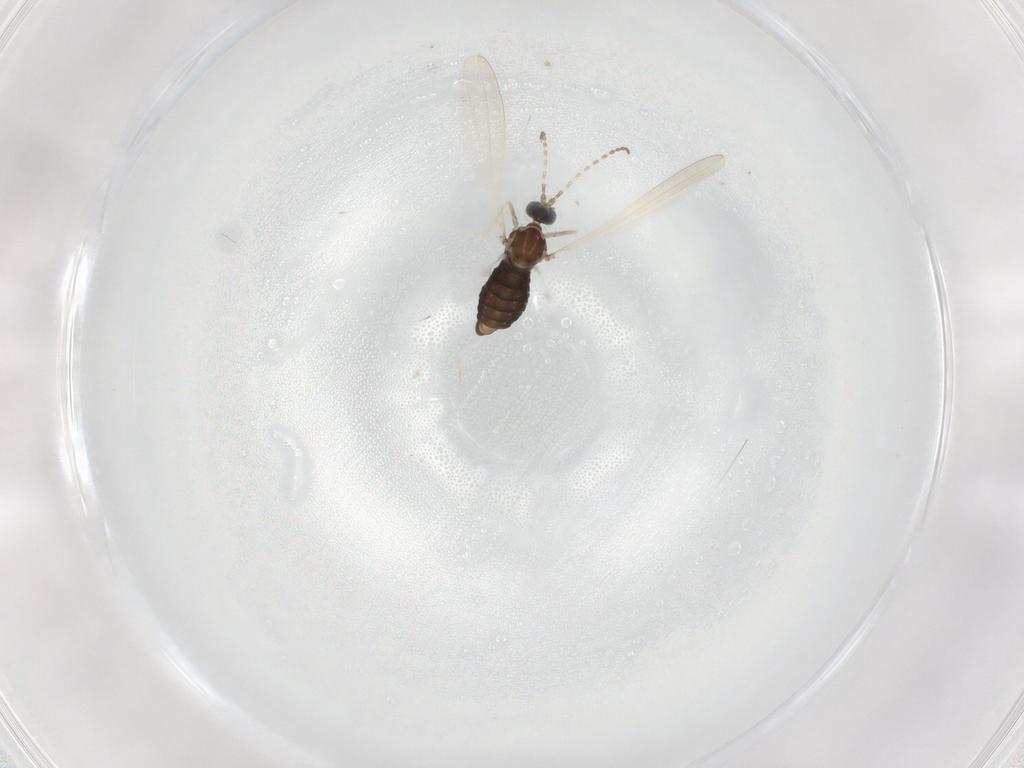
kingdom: Animalia
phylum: Arthropoda
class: Insecta
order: Diptera
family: Cecidomyiidae
